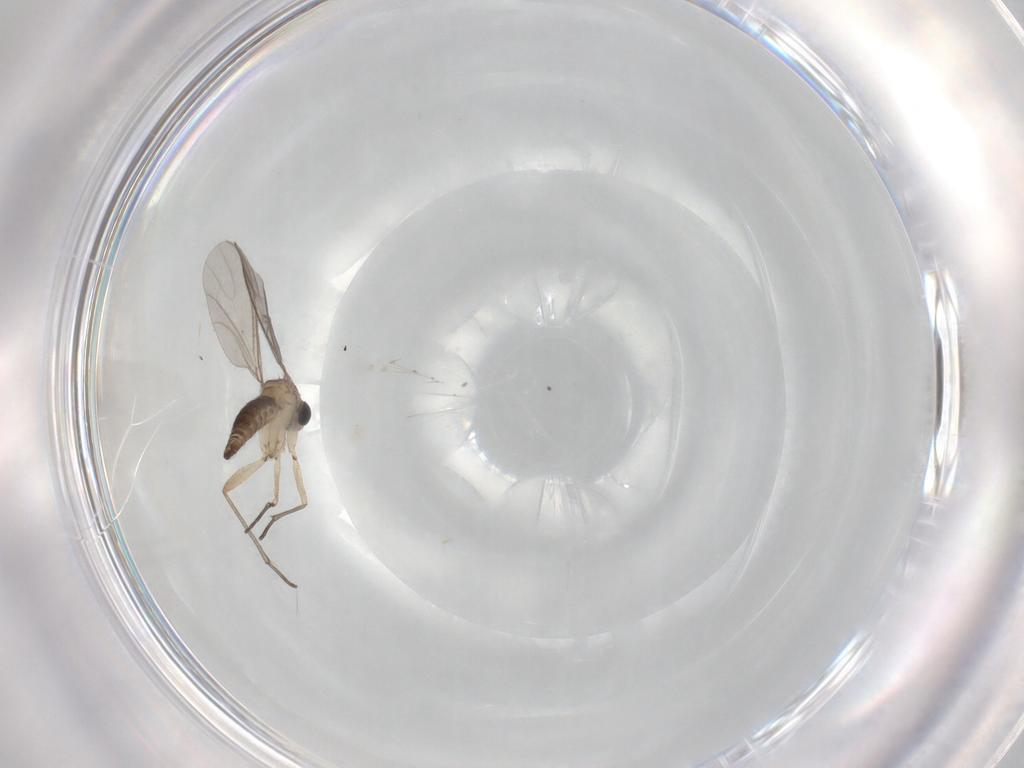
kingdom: Animalia
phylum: Arthropoda
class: Insecta
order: Diptera
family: Sciaridae
